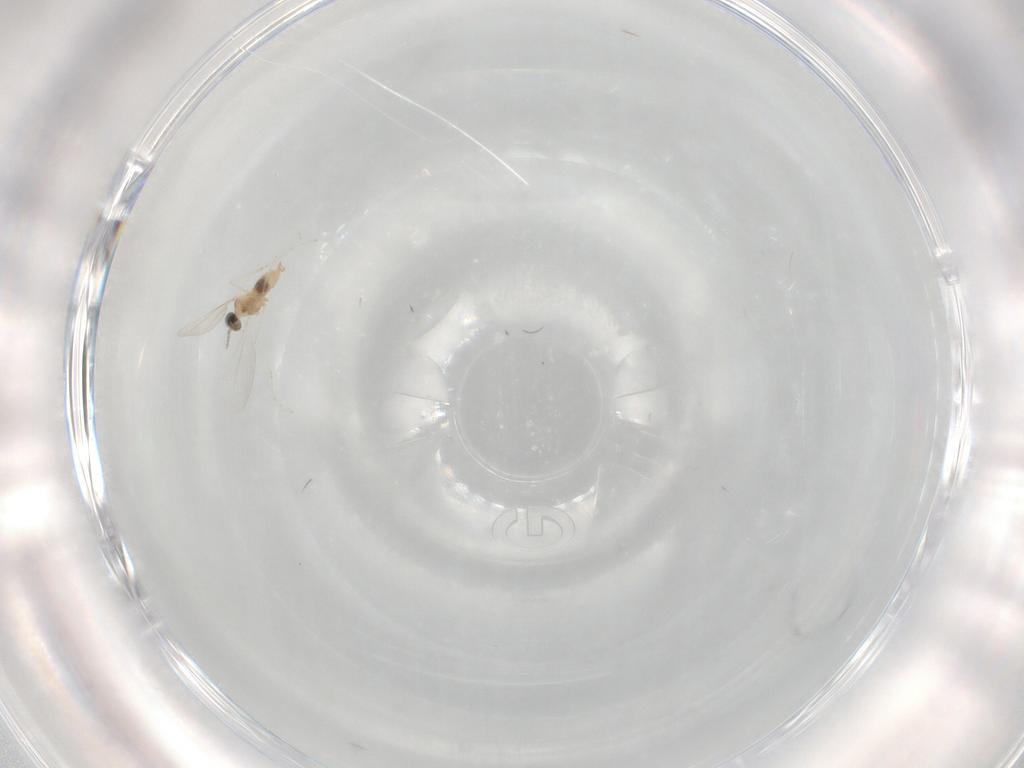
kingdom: Animalia
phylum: Arthropoda
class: Insecta
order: Diptera
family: Cecidomyiidae
